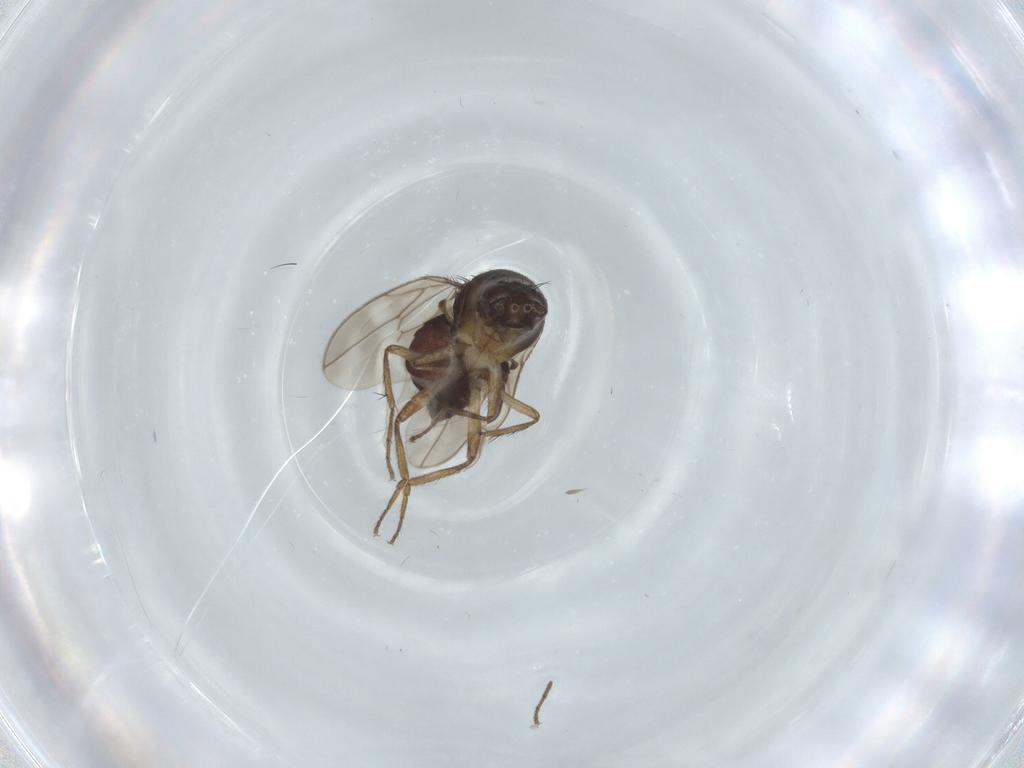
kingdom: Animalia
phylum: Arthropoda
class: Insecta
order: Diptera
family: Sphaeroceridae
